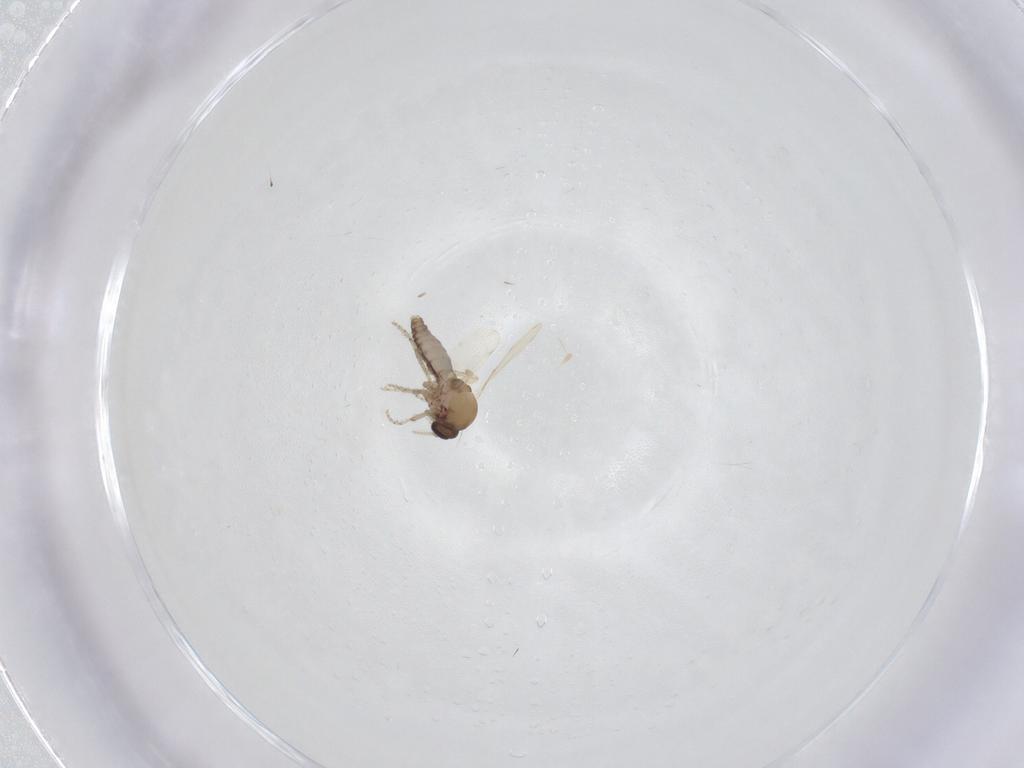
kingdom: Animalia
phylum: Arthropoda
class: Insecta
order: Diptera
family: Ceratopogonidae
